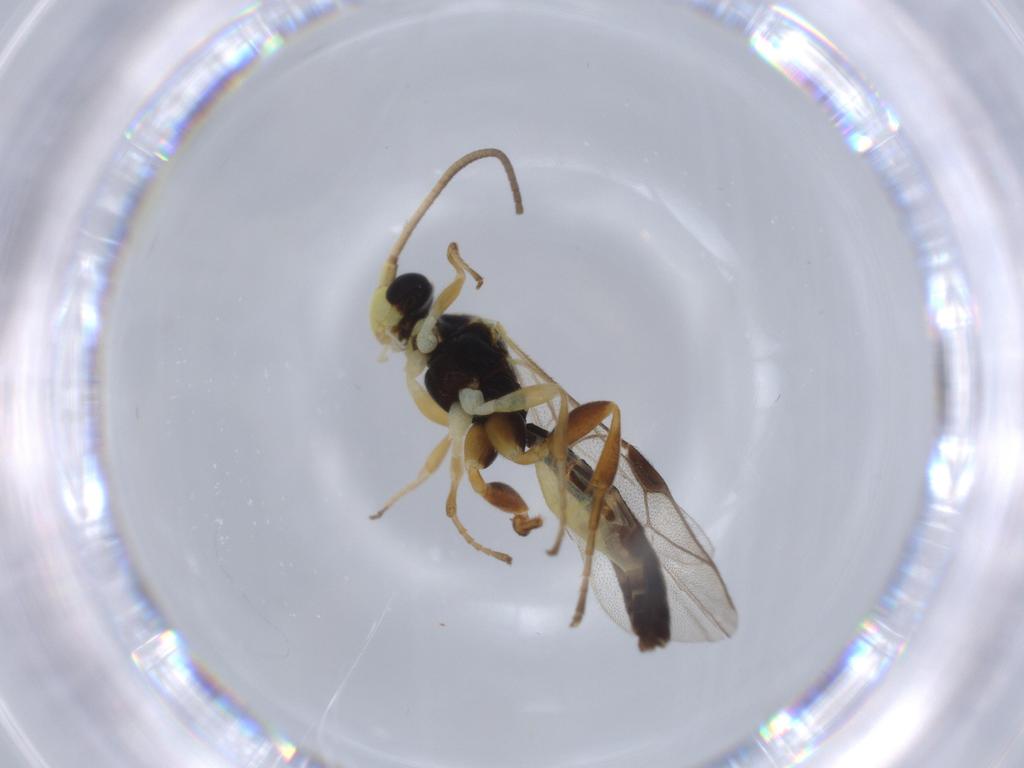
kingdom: Animalia
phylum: Arthropoda
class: Insecta
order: Hymenoptera
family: Ichneumonidae
